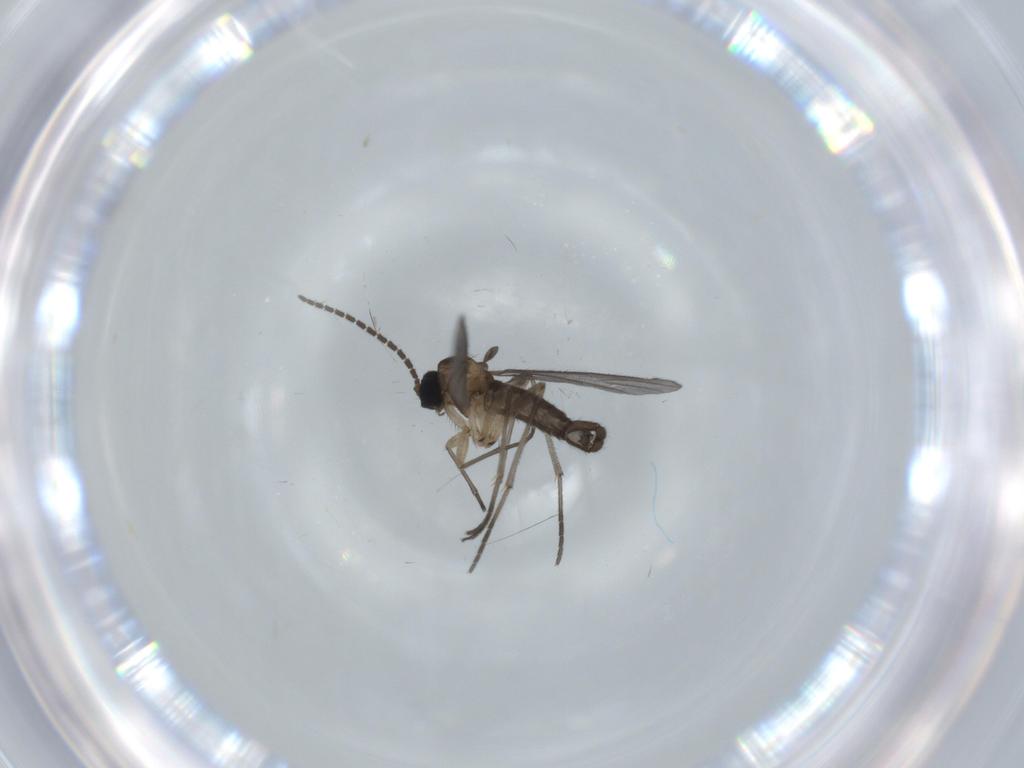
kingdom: Animalia
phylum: Arthropoda
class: Insecta
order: Diptera
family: Sciaridae
